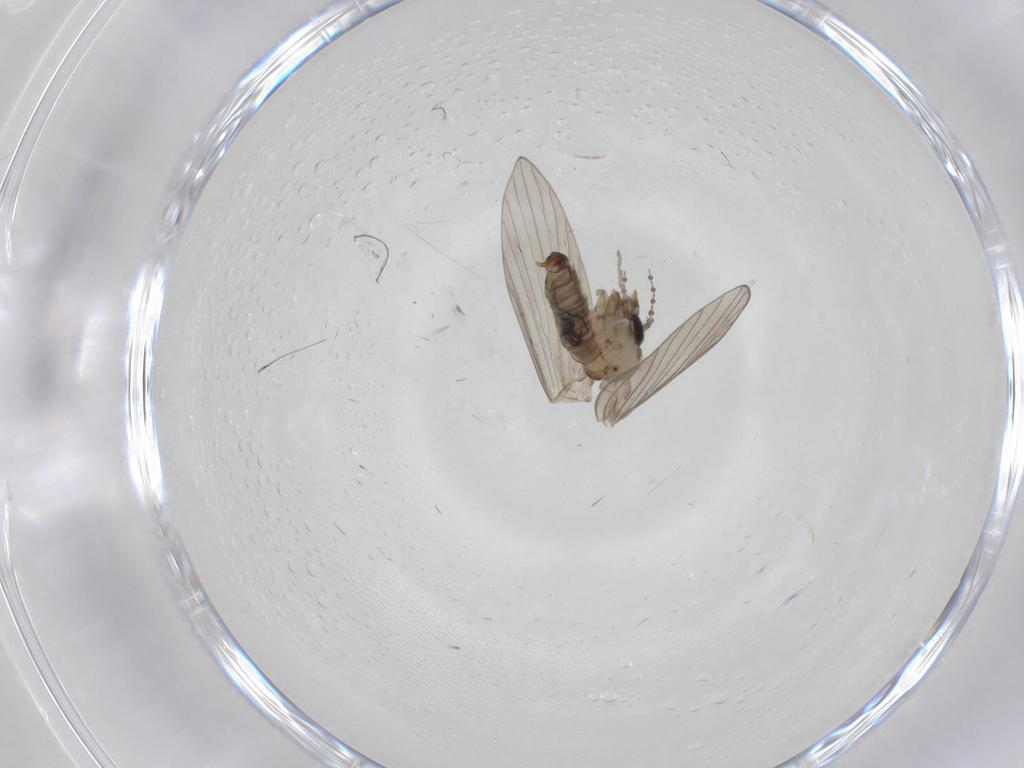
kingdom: Animalia
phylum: Arthropoda
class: Insecta
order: Diptera
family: Psychodidae
